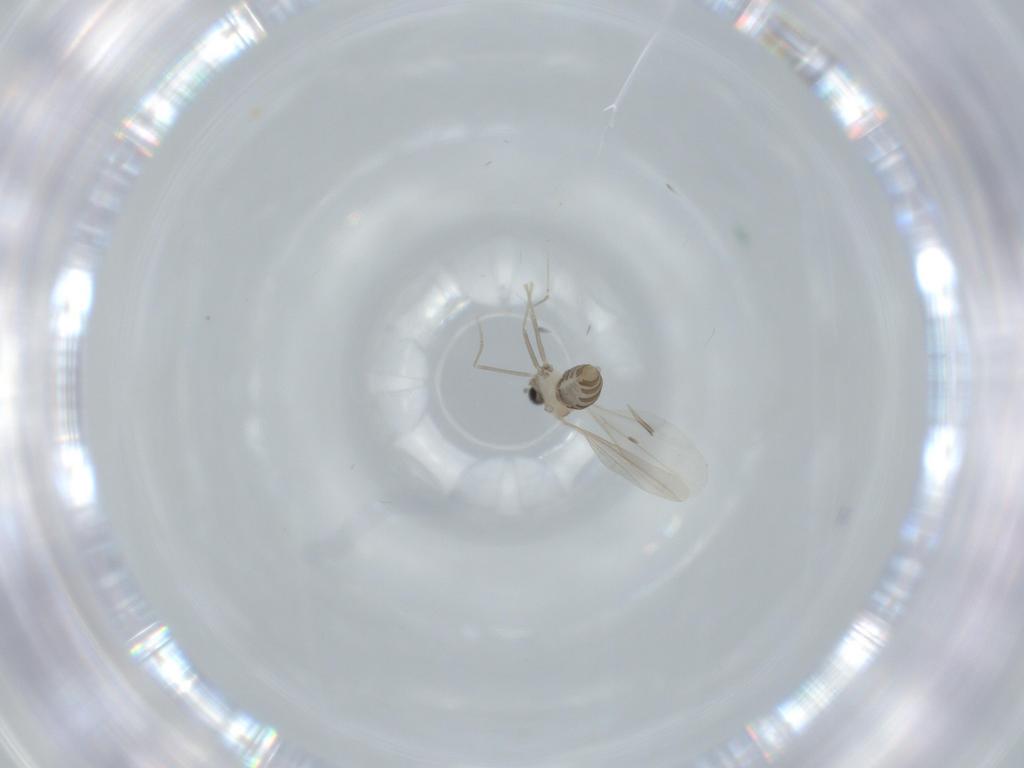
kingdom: Animalia
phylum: Arthropoda
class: Insecta
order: Diptera
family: Cecidomyiidae
